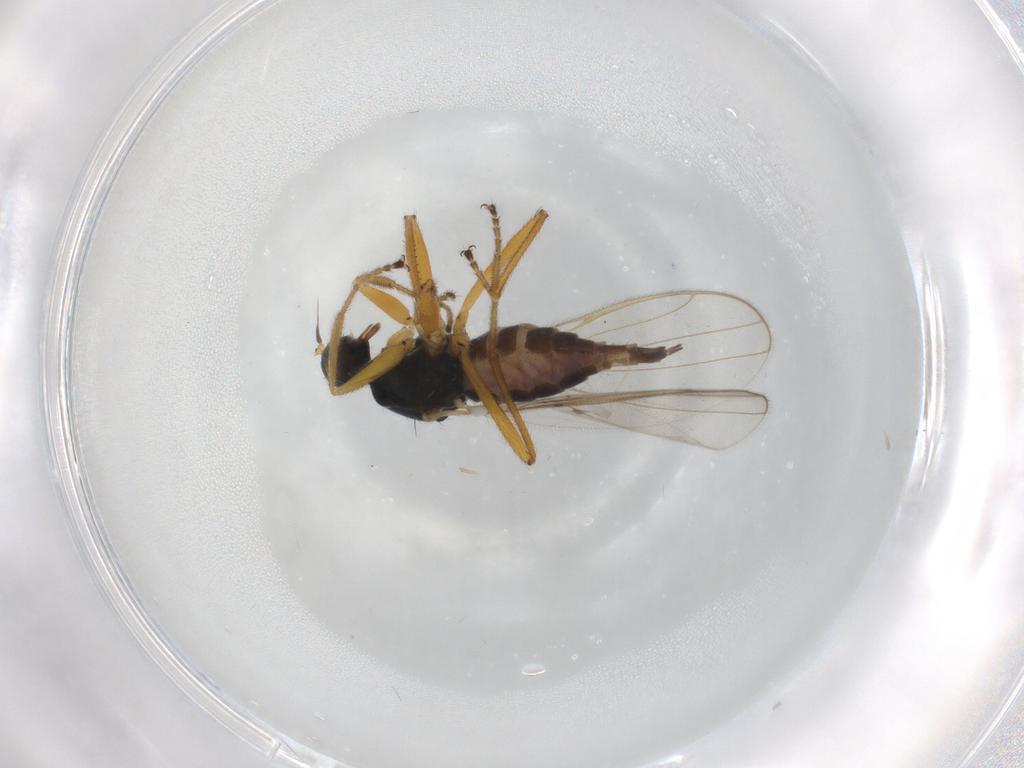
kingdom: Animalia
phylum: Arthropoda
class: Insecta
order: Diptera
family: Hybotidae
